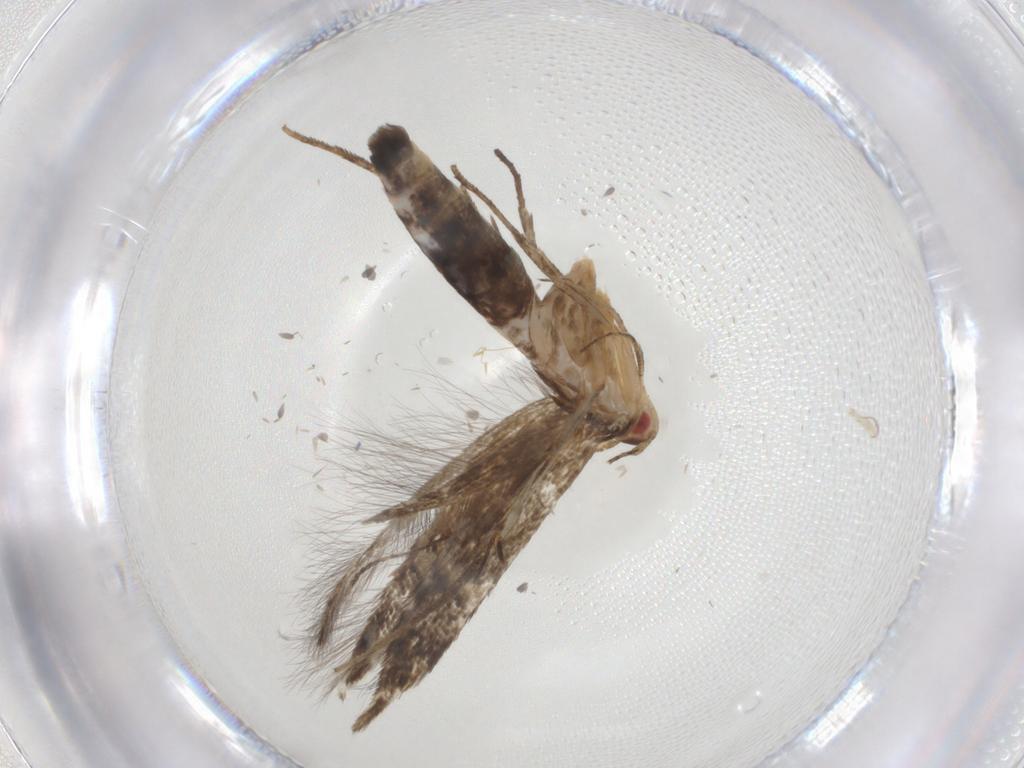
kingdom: Animalia
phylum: Arthropoda
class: Insecta
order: Lepidoptera
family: Cosmopterigidae
